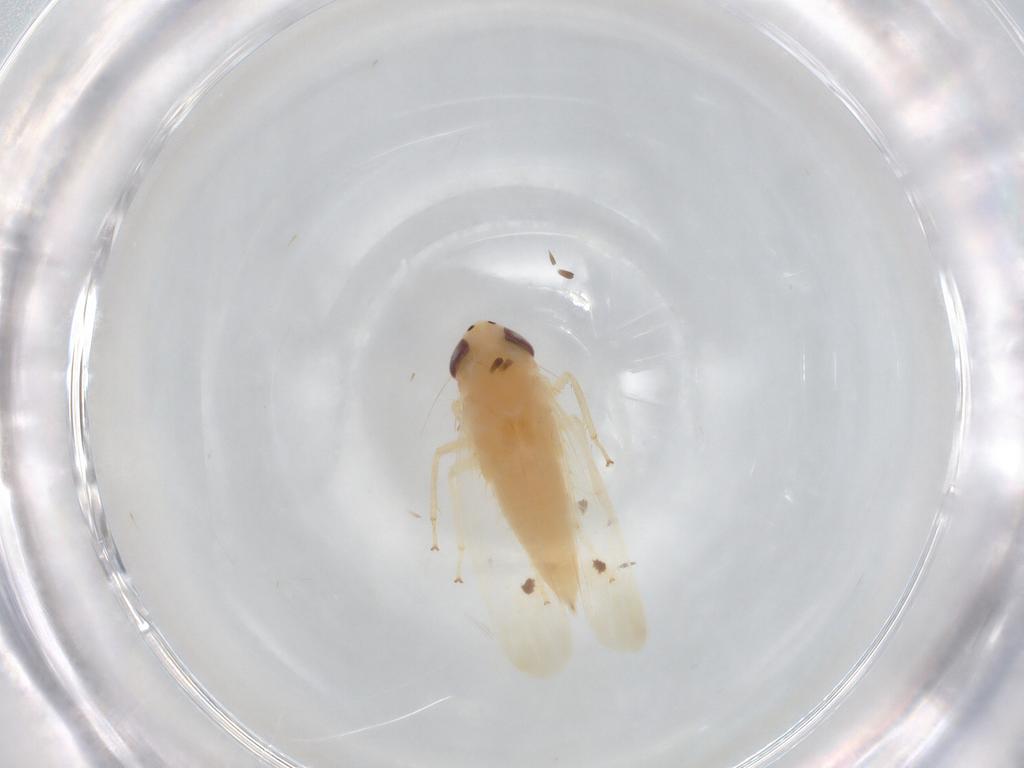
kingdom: Animalia
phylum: Arthropoda
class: Insecta
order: Hemiptera
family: Cicadellidae
